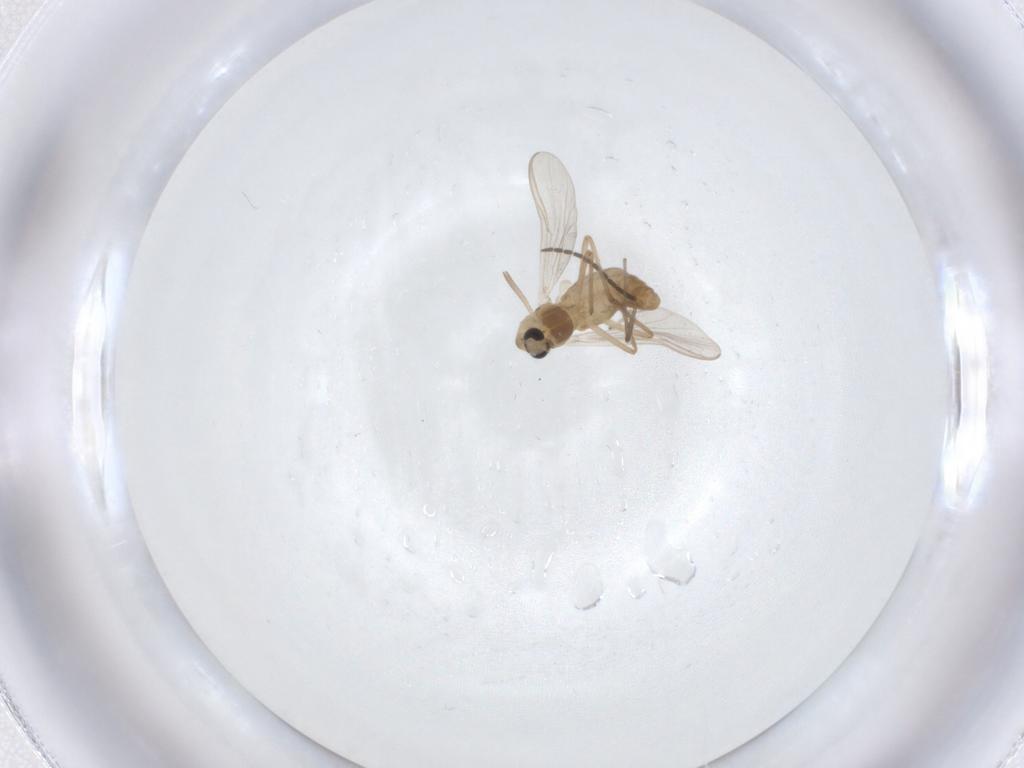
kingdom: Animalia
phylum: Arthropoda
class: Insecta
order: Diptera
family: Chironomidae
